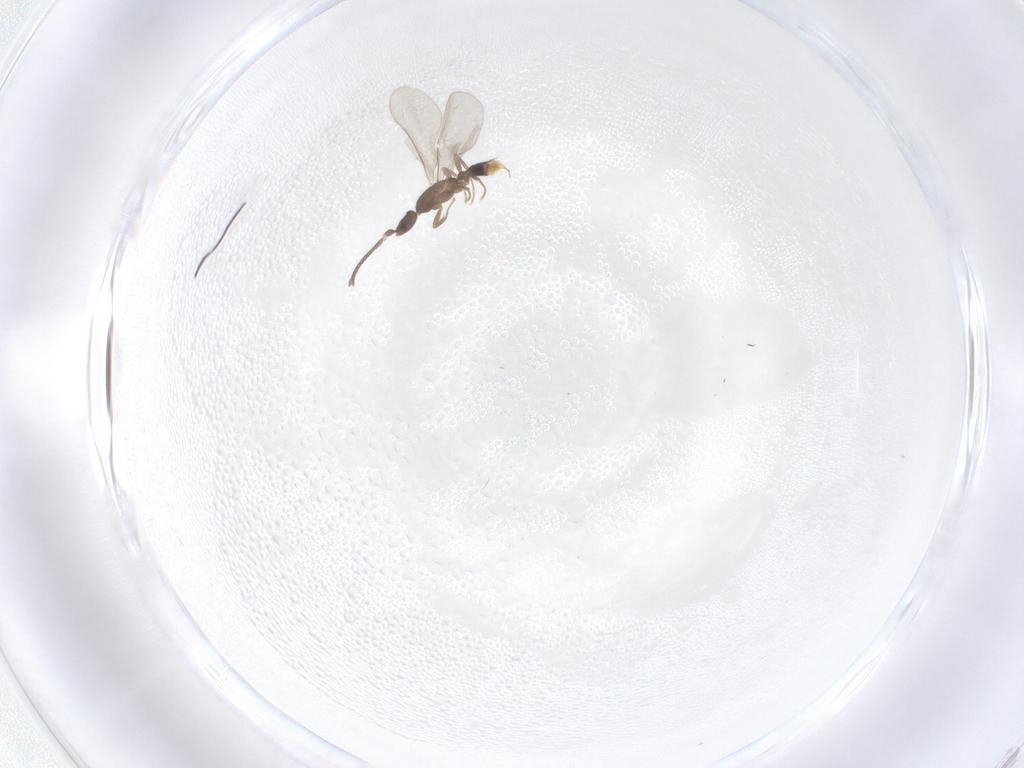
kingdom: Animalia
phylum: Arthropoda
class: Insecta
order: Hymenoptera
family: Formicidae
